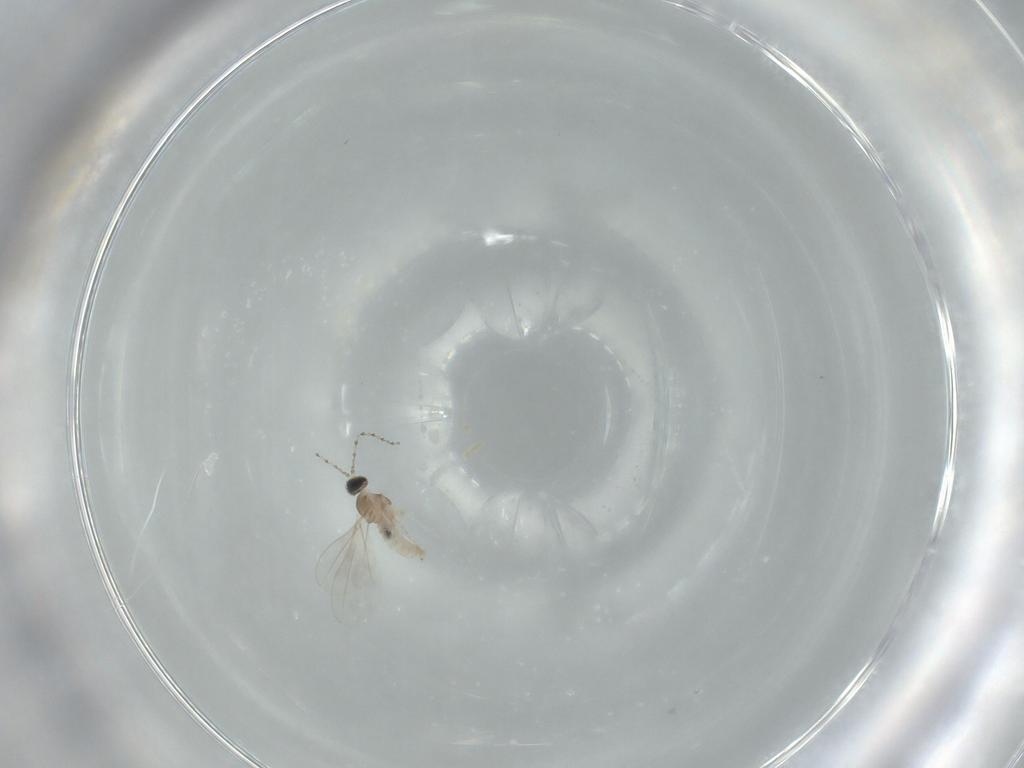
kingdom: Animalia
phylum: Arthropoda
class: Insecta
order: Diptera
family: Cecidomyiidae
